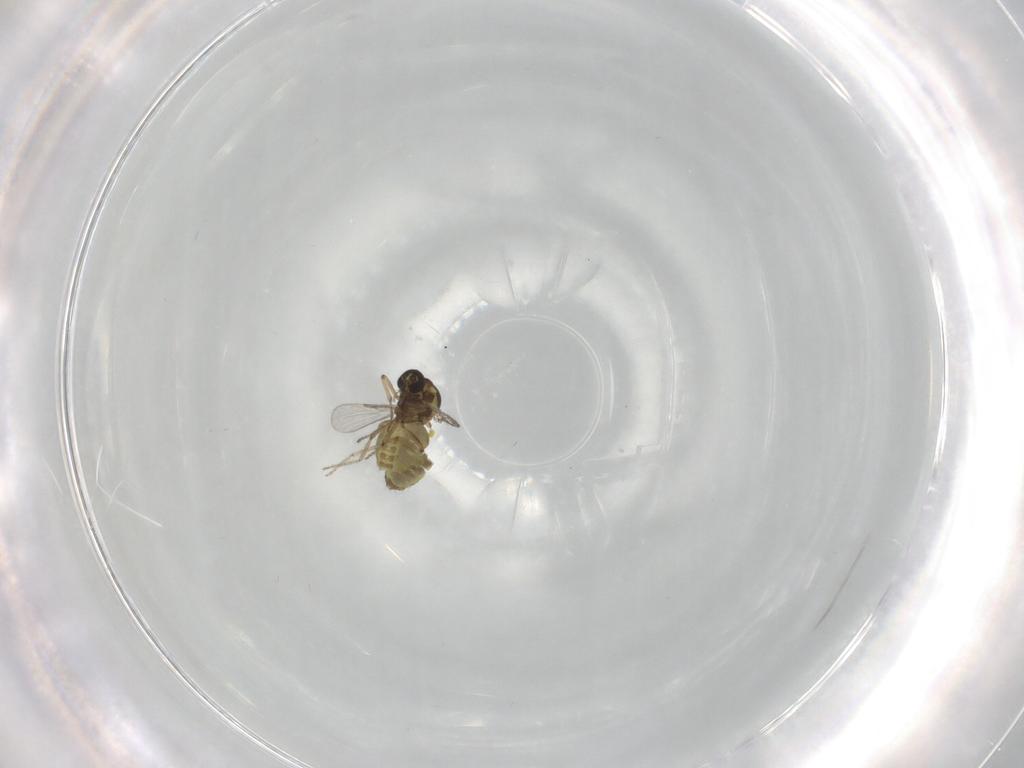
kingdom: Animalia
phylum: Arthropoda
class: Insecta
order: Diptera
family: Ceratopogonidae
